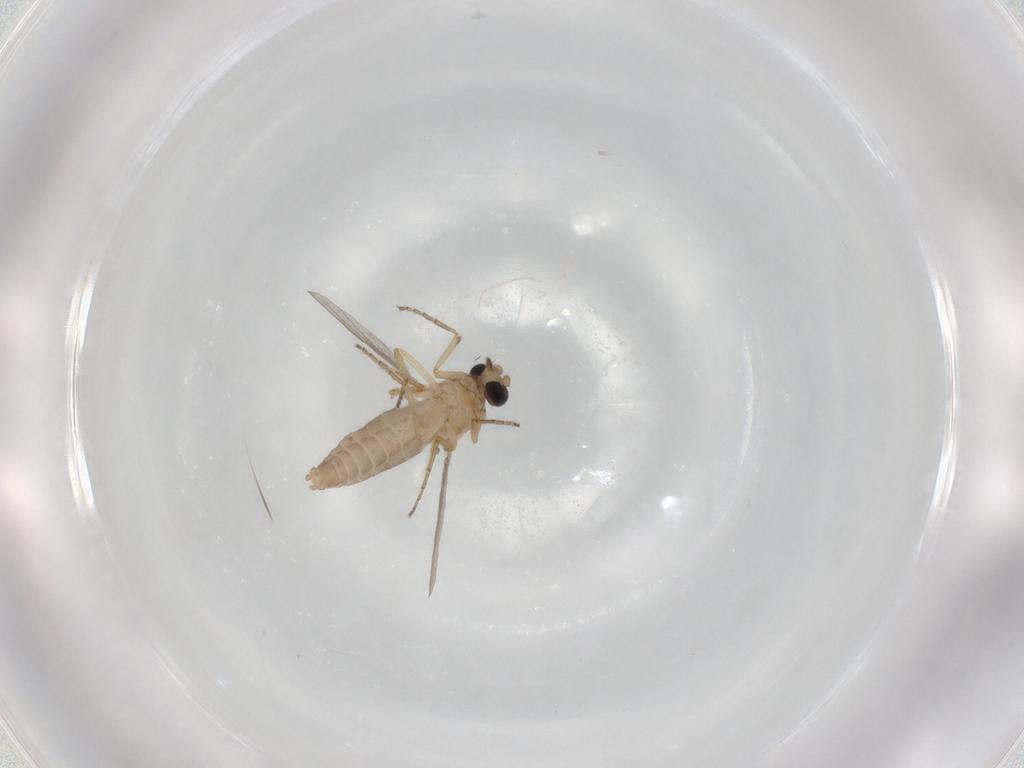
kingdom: Animalia
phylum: Arthropoda
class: Insecta
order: Diptera
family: Ceratopogonidae
